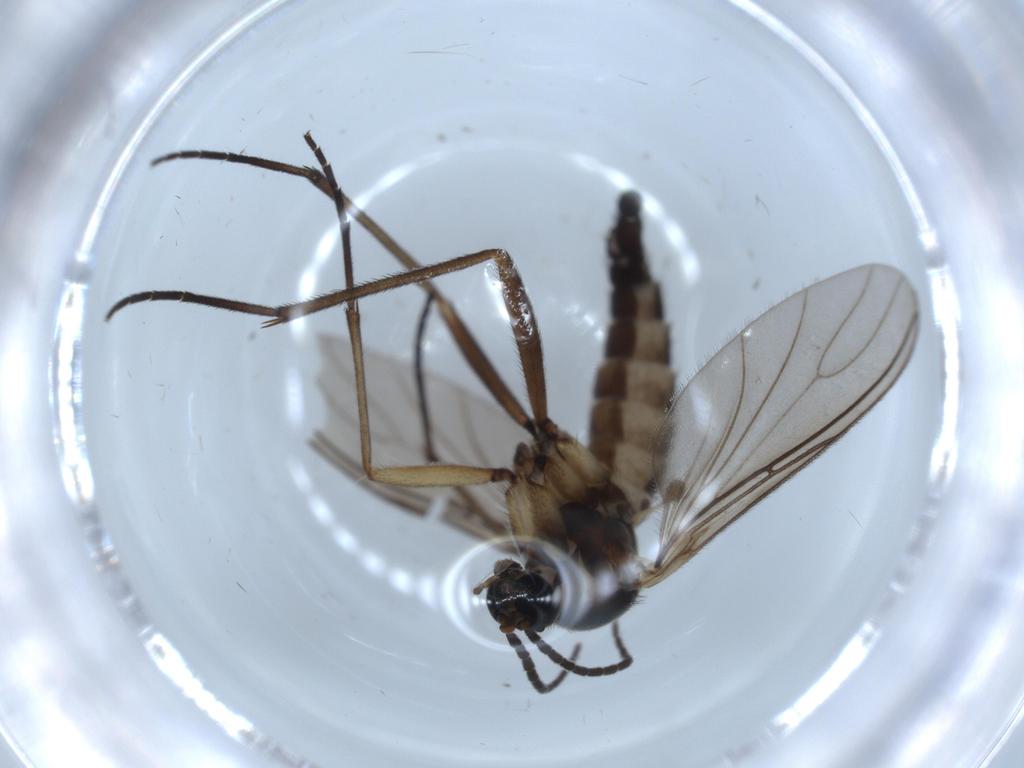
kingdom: Animalia
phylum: Arthropoda
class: Insecta
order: Diptera
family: Sciaridae
